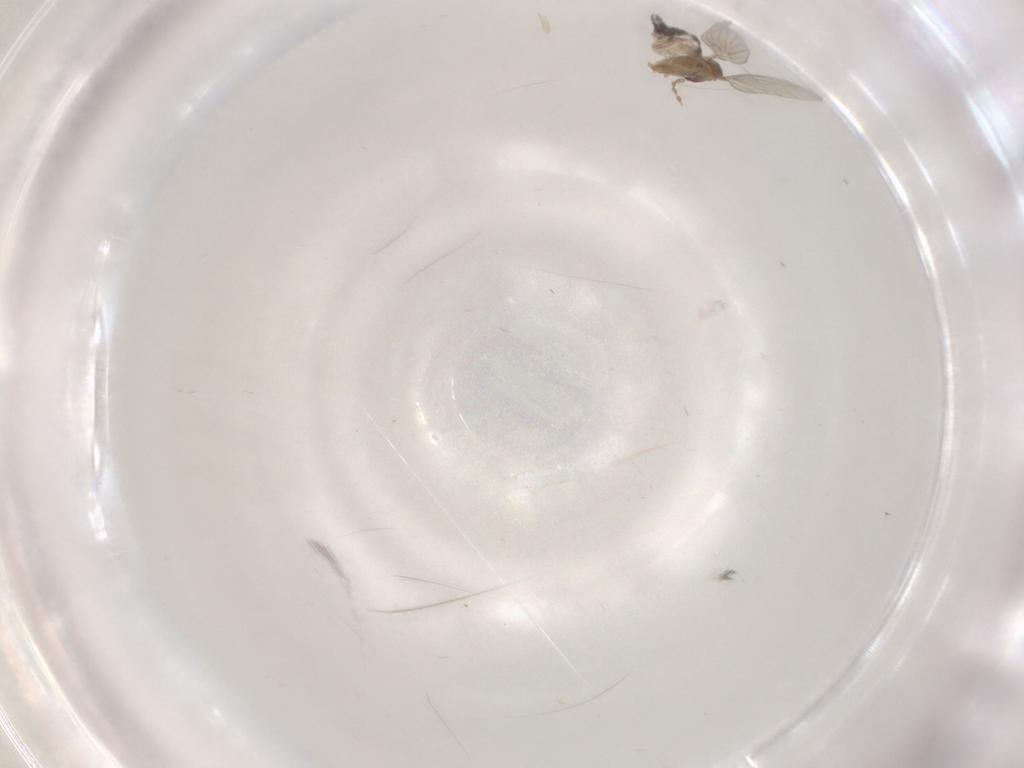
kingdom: Animalia
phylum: Arthropoda
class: Insecta
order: Diptera
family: Chironomidae
